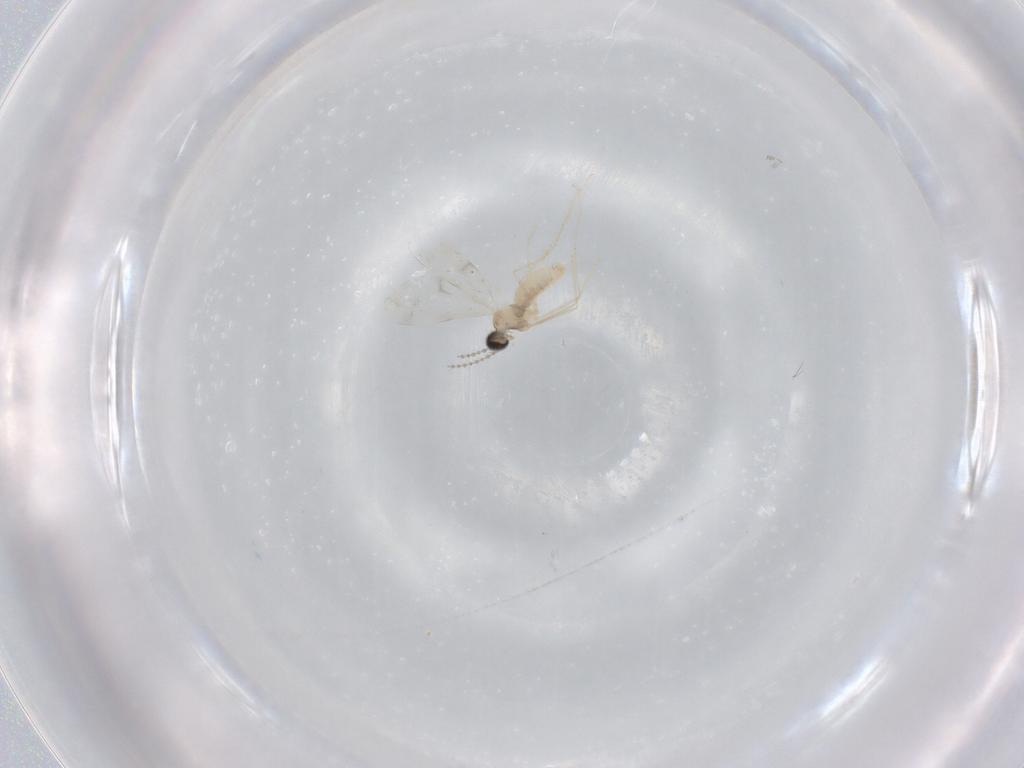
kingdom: Animalia
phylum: Arthropoda
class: Insecta
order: Diptera
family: Cecidomyiidae
